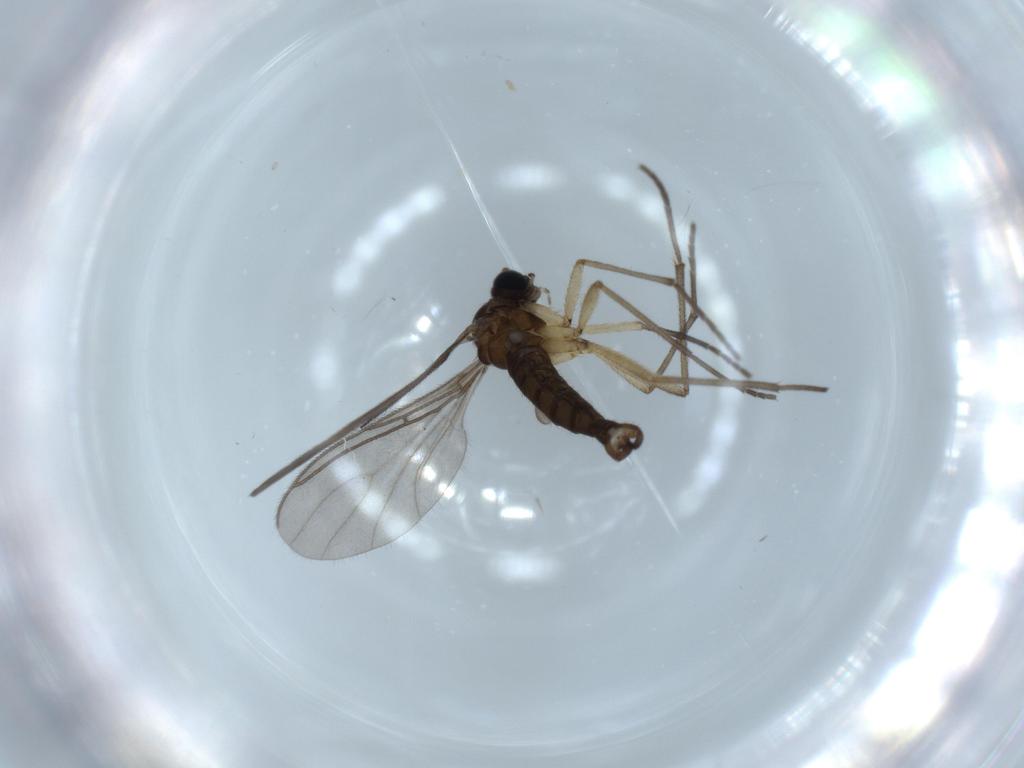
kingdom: Animalia
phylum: Arthropoda
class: Insecta
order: Diptera
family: Sciaridae
